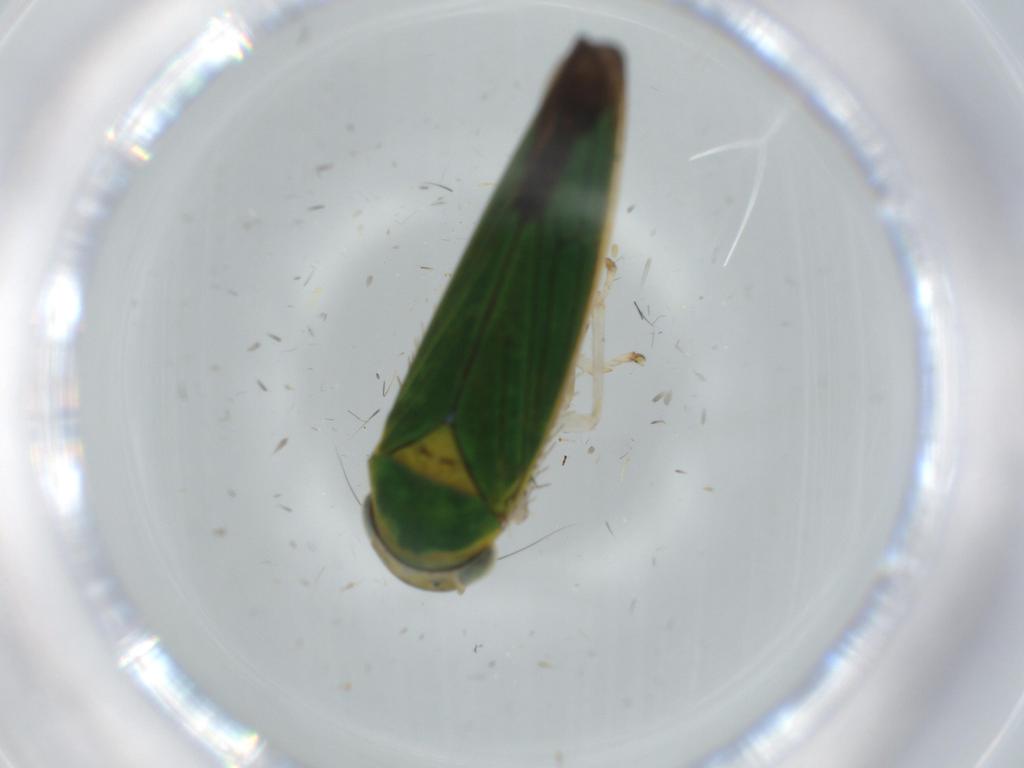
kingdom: Animalia
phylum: Arthropoda
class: Insecta
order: Hemiptera
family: Cicadellidae
